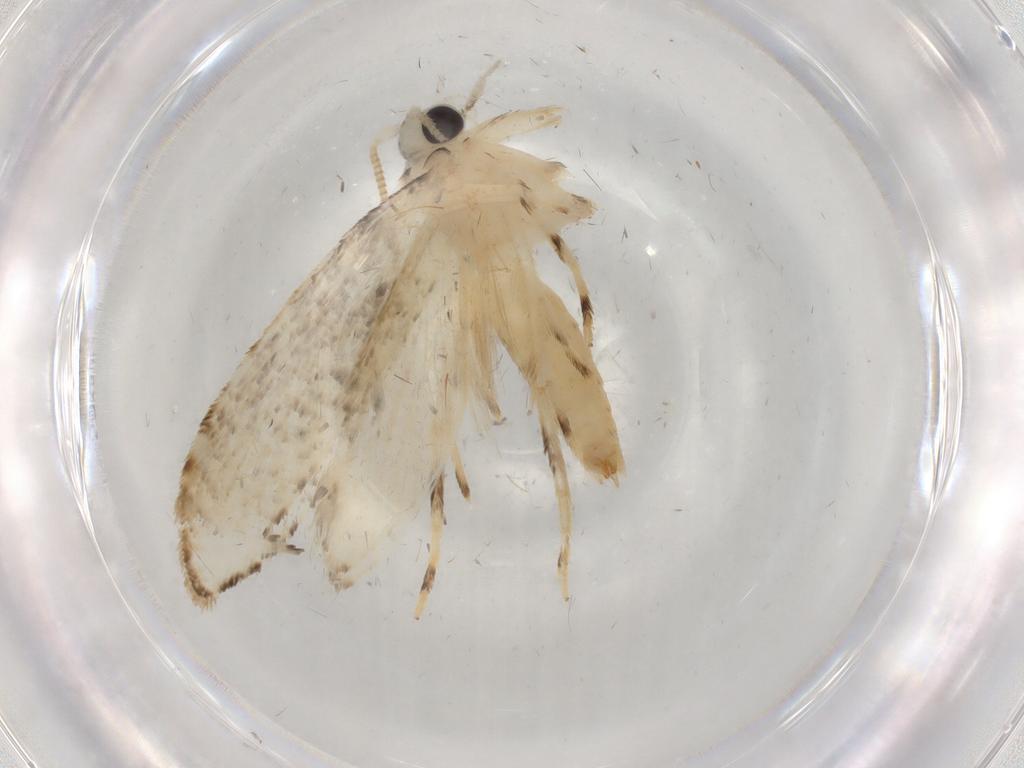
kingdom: Animalia
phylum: Arthropoda
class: Insecta
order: Lepidoptera
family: Tineidae
